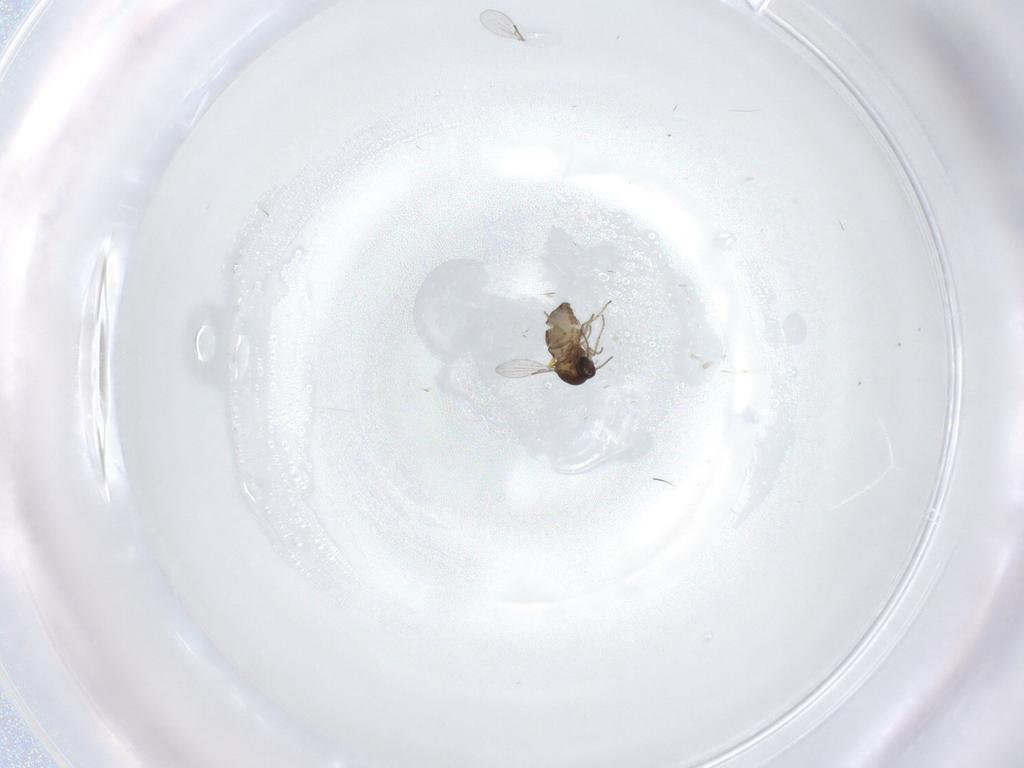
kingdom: Animalia
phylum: Arthropoda
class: Insecta
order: Diptera
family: Ceratopogonidae
